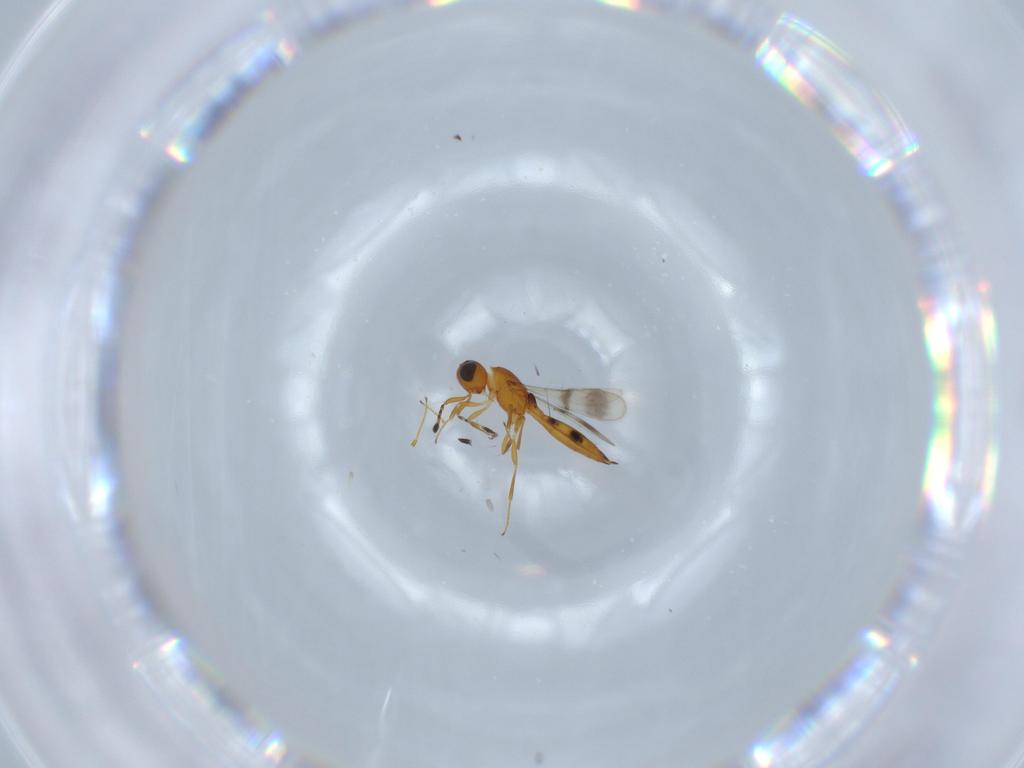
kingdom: Animalia
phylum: Arthropoda
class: Insecta
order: Hymenoptera
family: Scelionidae
